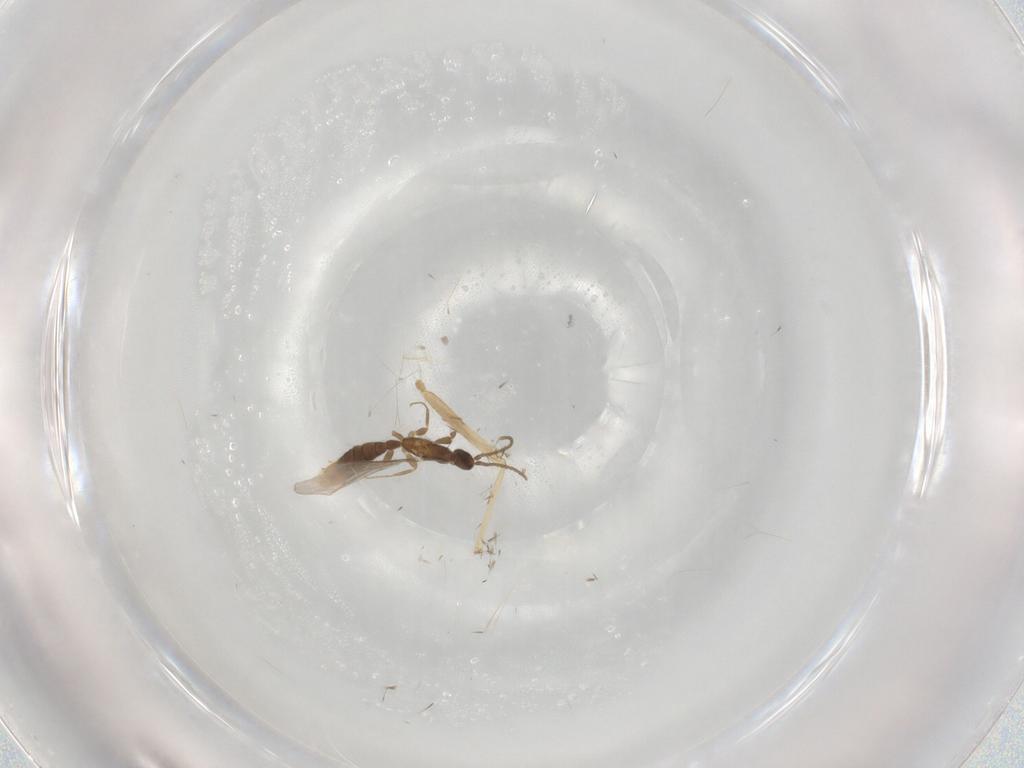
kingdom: Animalia
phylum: Arthropoda
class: Insecta
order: Hymenoptera
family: Formicidae
